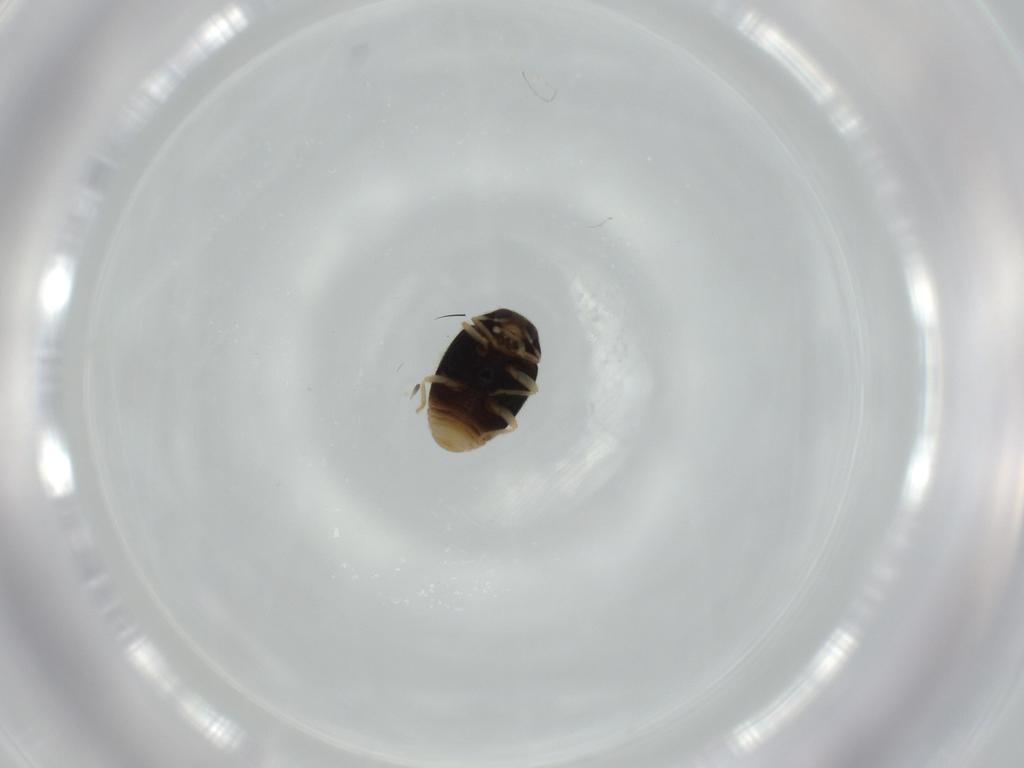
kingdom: Animalia
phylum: Arthropoda
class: Insecta
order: Coleoptera
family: Coccinellidae
